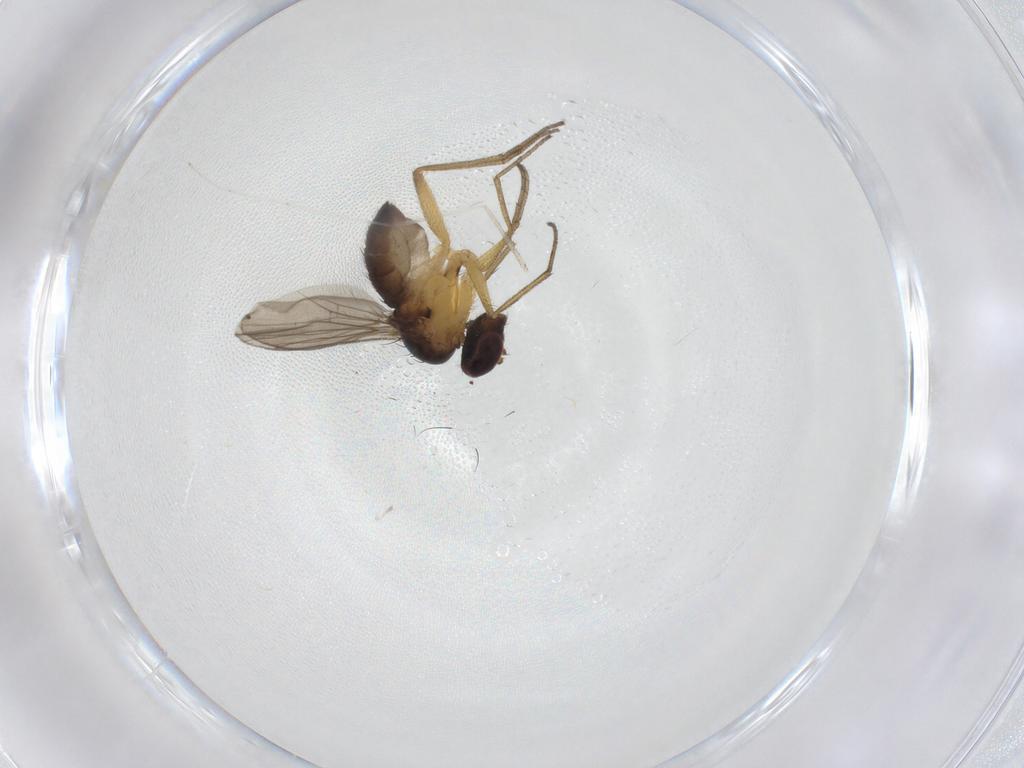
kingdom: Animalia
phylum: Arthropoda
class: Insecta
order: Diptera
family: Dolichopodidae
